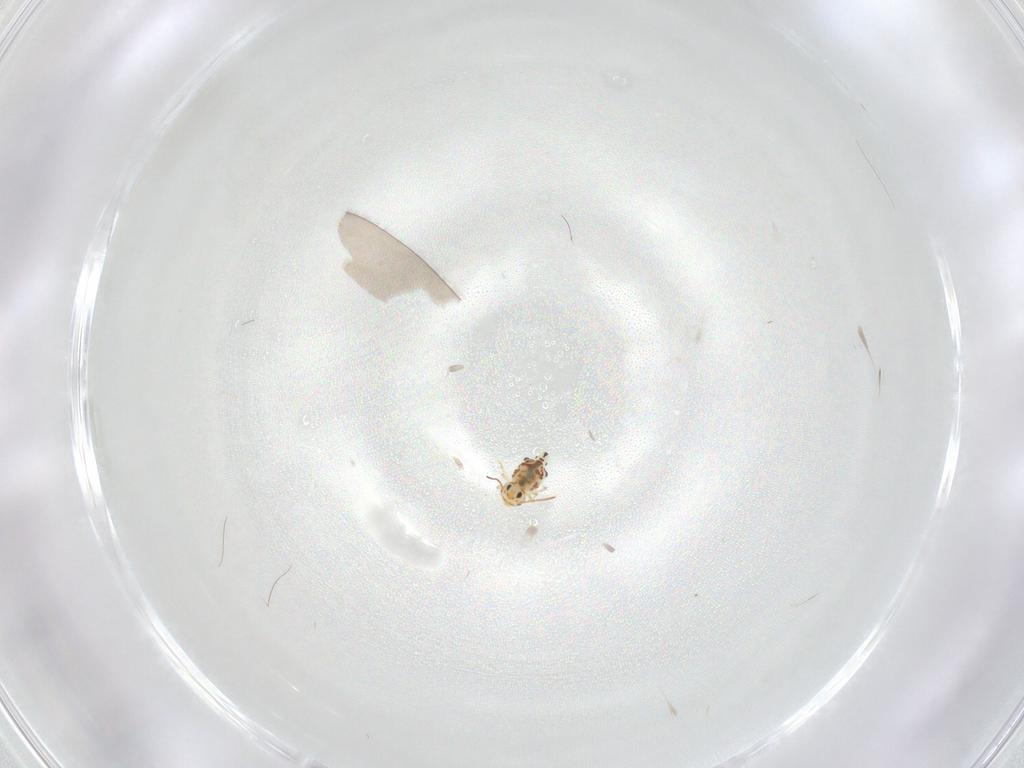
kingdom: Animalia
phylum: Arthropoda
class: Collembola
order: Symphypleona
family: Bourletiellidae
